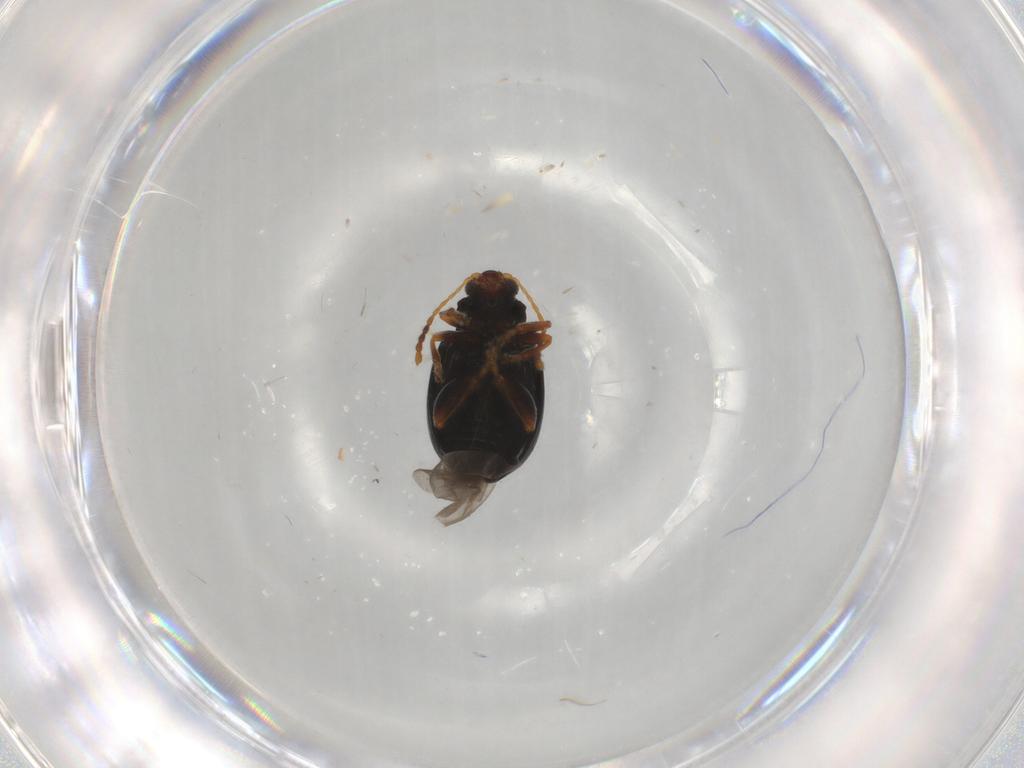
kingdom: Animalia
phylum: Arthropoda
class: Insecta
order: Coleoptera
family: Chrysomelidae
